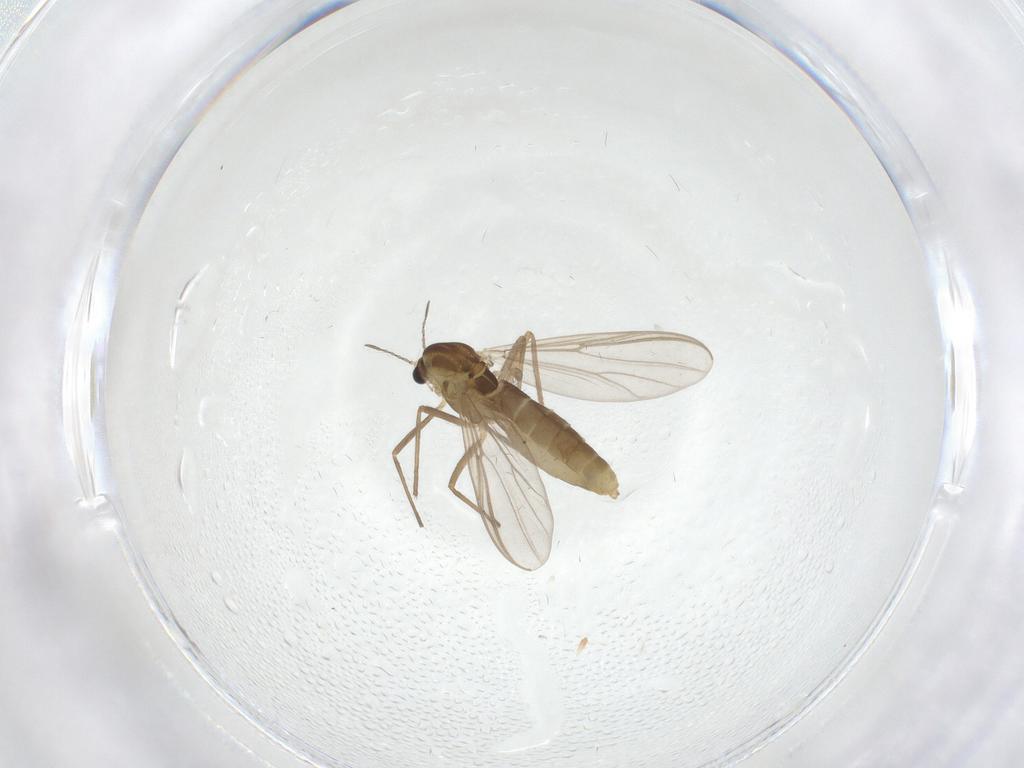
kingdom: Animalia
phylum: Arthropoda
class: Insecta
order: Diptera
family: Chironomidae
